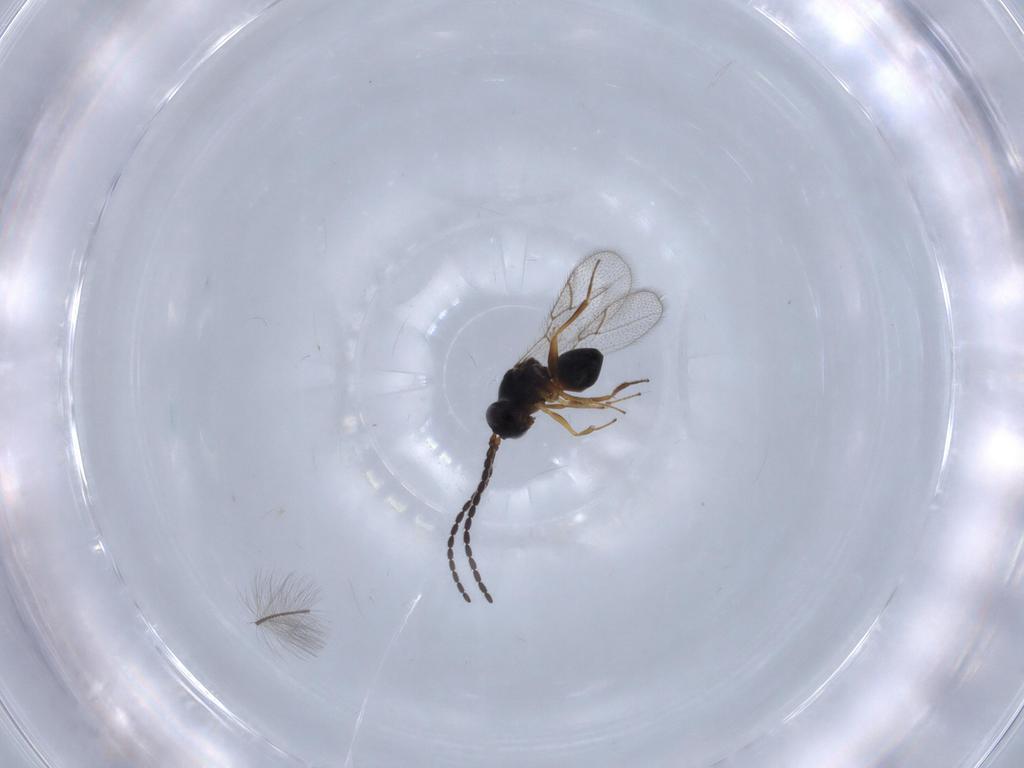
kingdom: Animalia
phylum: Arthropoda
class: Insecta
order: Hymenoptera
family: Figitidae
